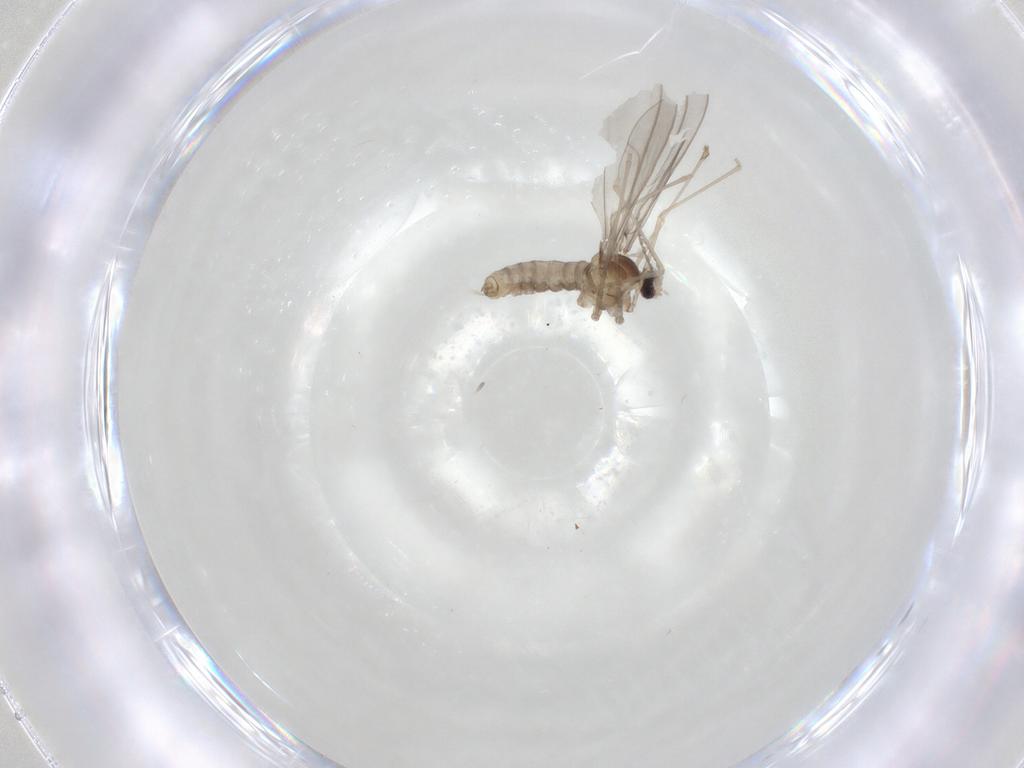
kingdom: Animalia
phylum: Arthropoda
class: Insecta
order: Diptera
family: Cecidomyiidae
